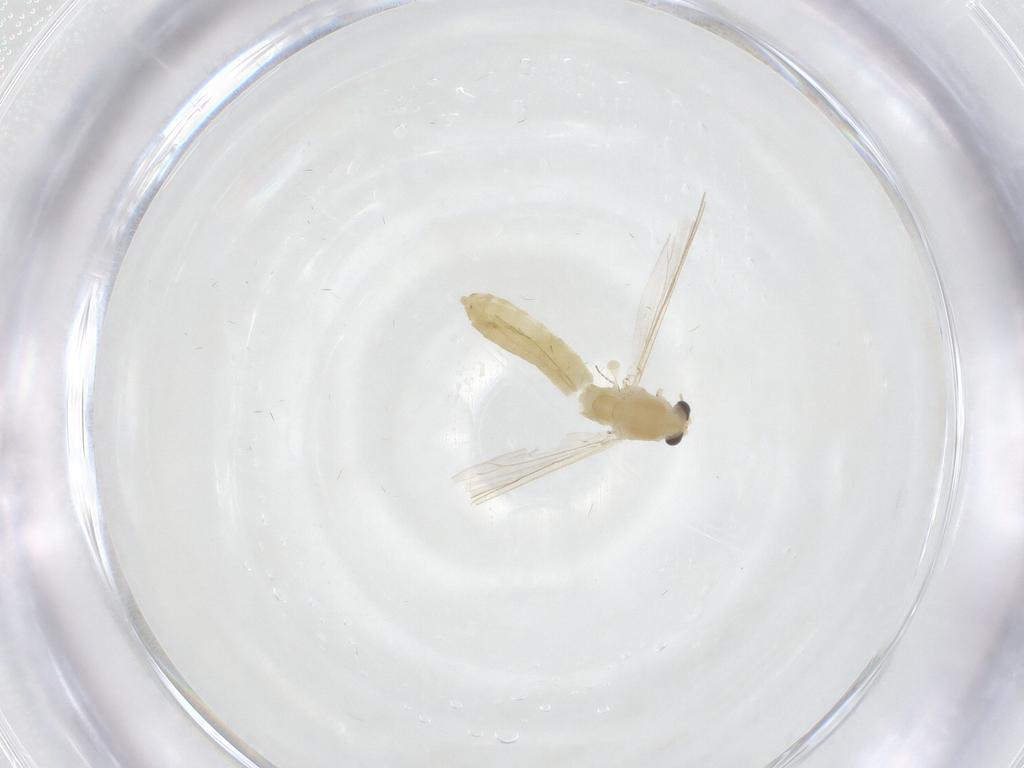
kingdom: Animalia
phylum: Arthropoda
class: Insecta
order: Diptera
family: Chironomidae
